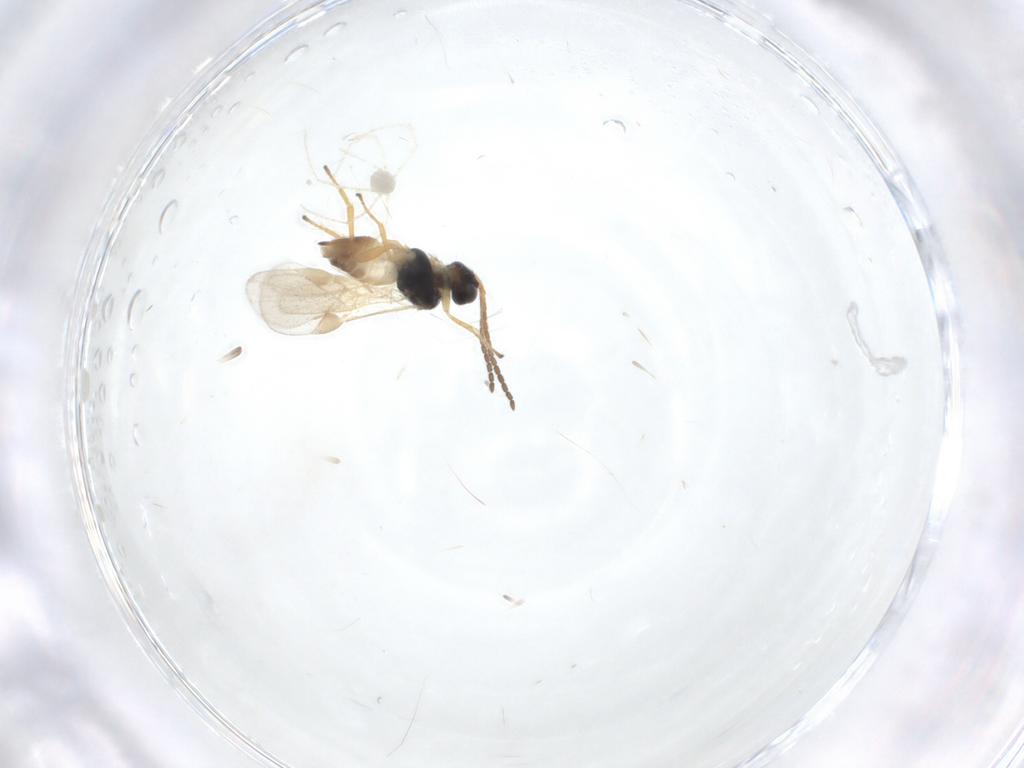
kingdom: Animalia
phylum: Arthropoda
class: Insecta
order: Hymenoptera
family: Braconidae
